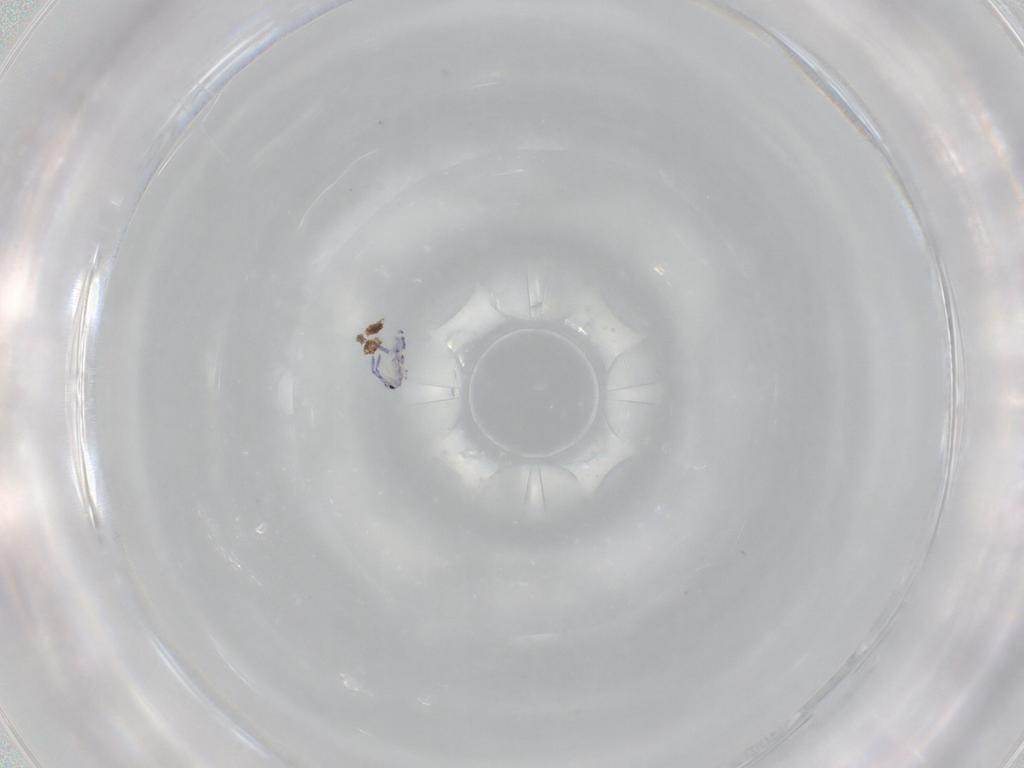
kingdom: Animalia
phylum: Arthropoda
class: Collembola
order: Entomobryomorpha
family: Entomobryidae
